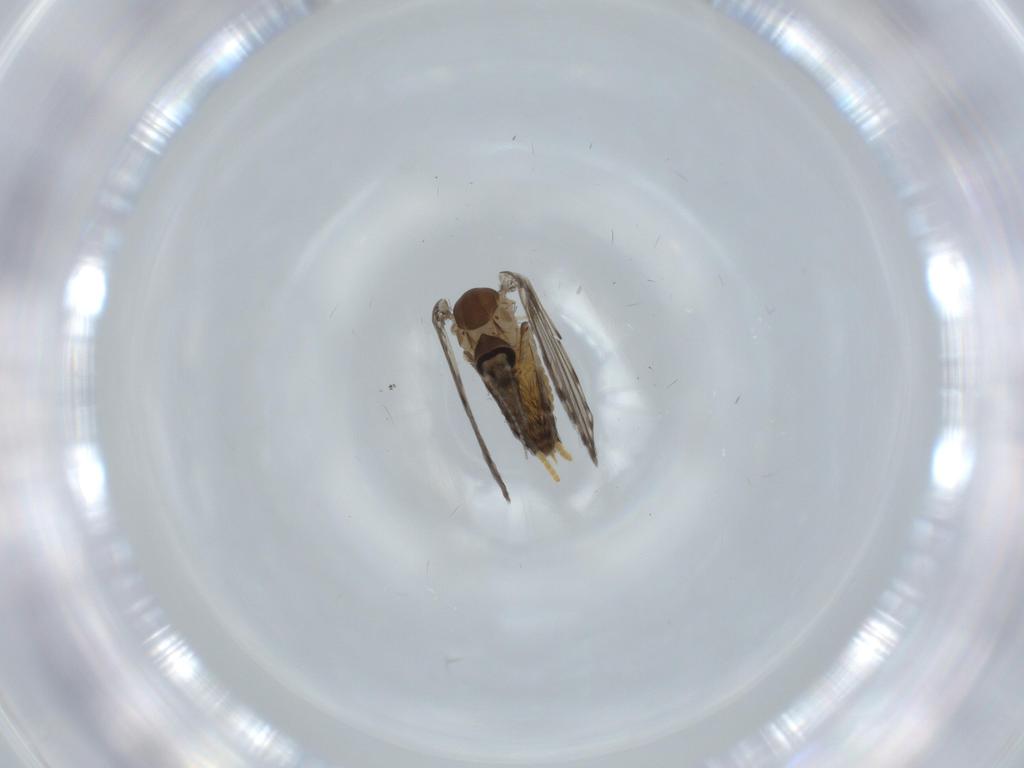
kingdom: Animalia
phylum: Arthropoda
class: Insecta
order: Diptera
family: Psychodidae
